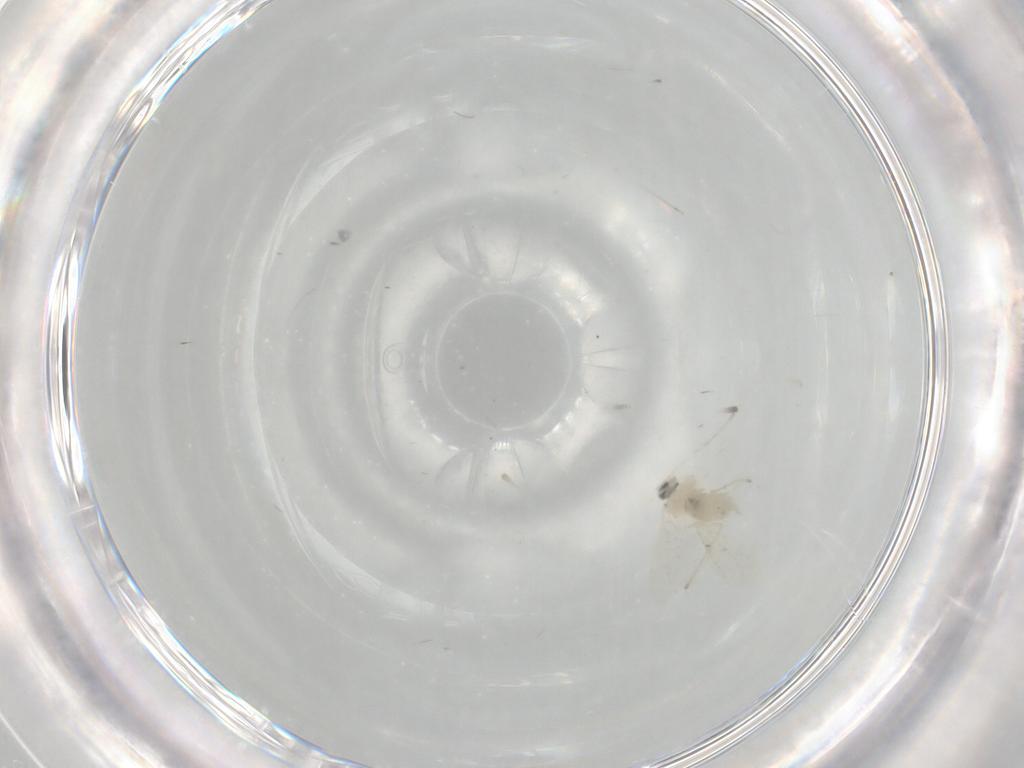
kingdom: Animalia
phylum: Arthropoda
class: Insecta
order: Diptera
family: Cecidomyiidae
